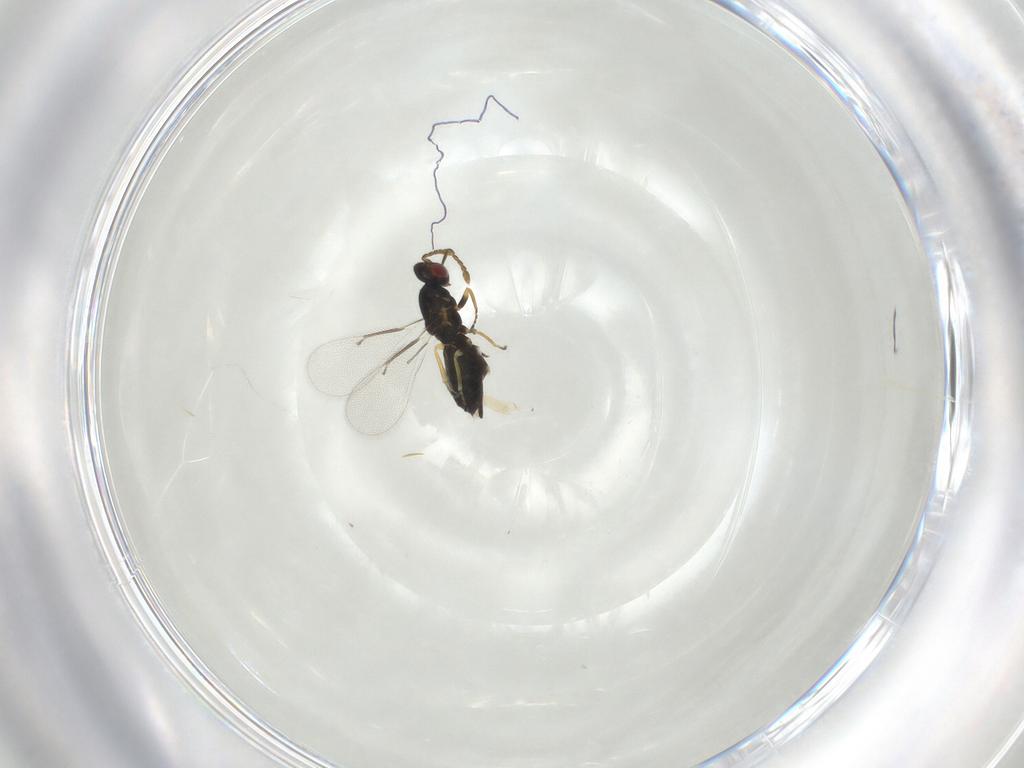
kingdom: Animalia
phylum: Arthropoda
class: Insecta
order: Hymenoptera
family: Eulophidae
